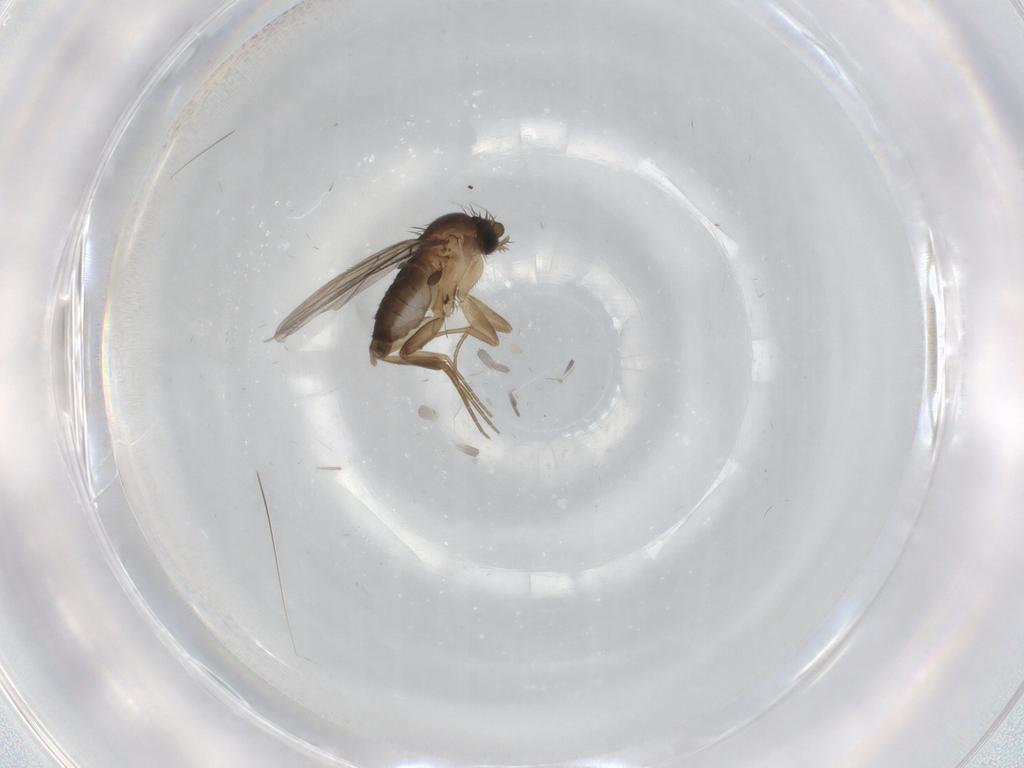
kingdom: Animalia
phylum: Arthropoda
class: Insecta
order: Diptera
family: Phoridae
